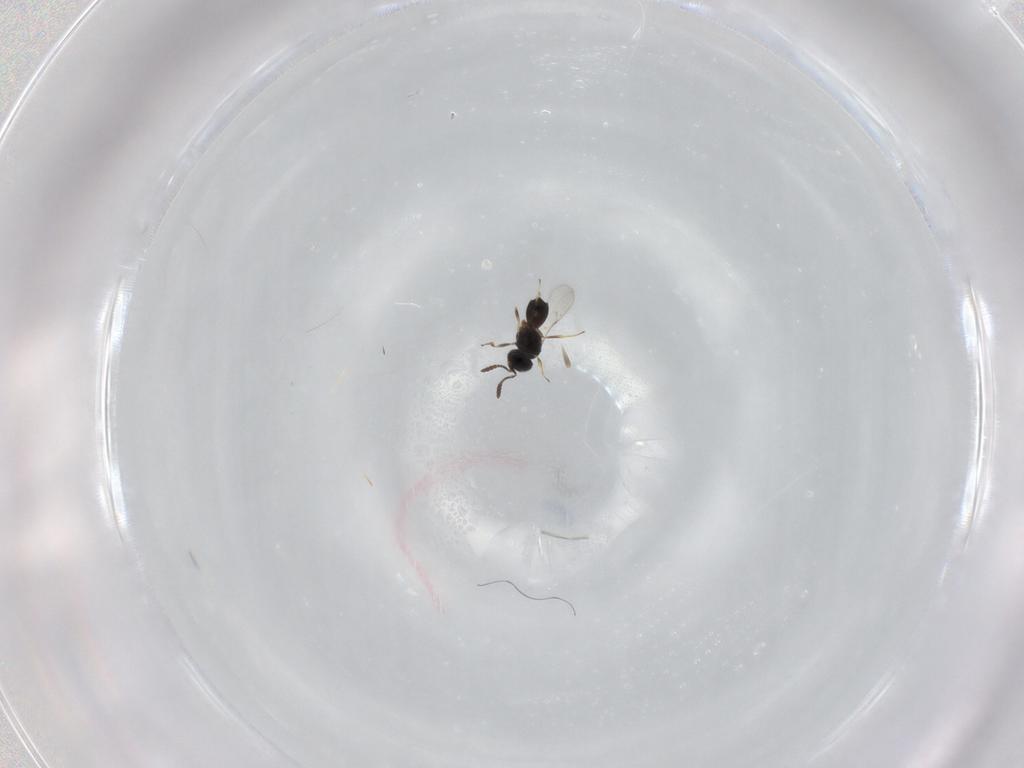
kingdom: Animalia
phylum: Arthropoda
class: Insecta
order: Hymenoptera
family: Scelionidae
